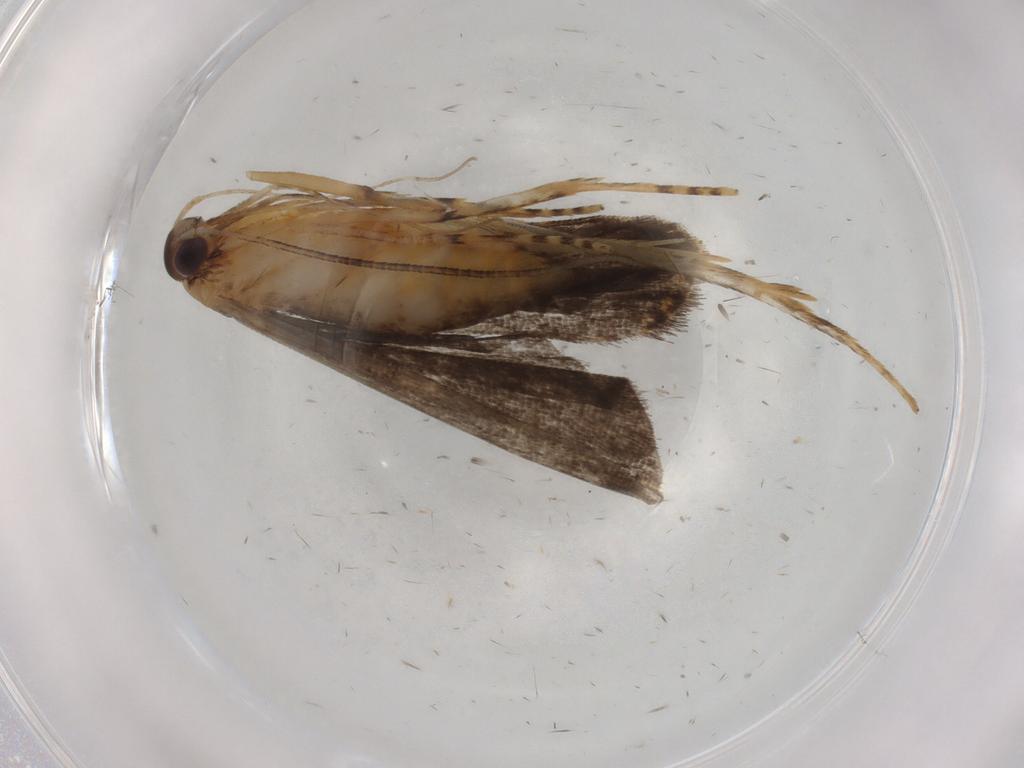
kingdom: Animalia
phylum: Arthropoda
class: Insecta
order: Lepidoptera
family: Cosmopterigidae
